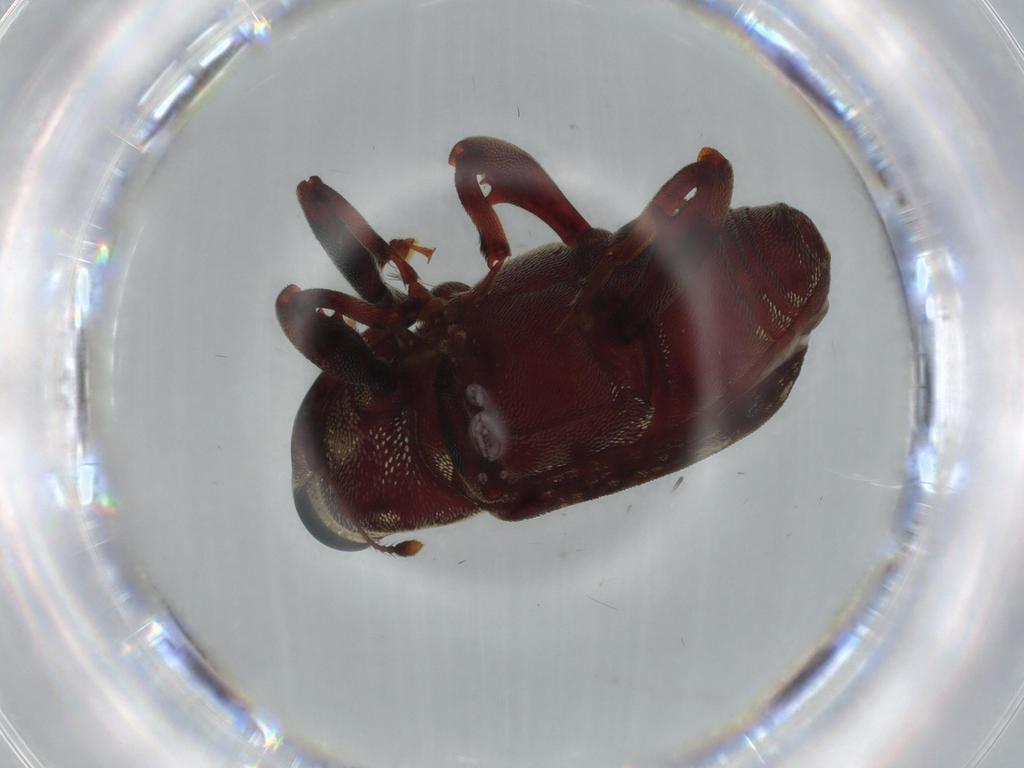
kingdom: Animalia
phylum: Arthropoda
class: Insecta
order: Coleoptera
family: Curculionidae
